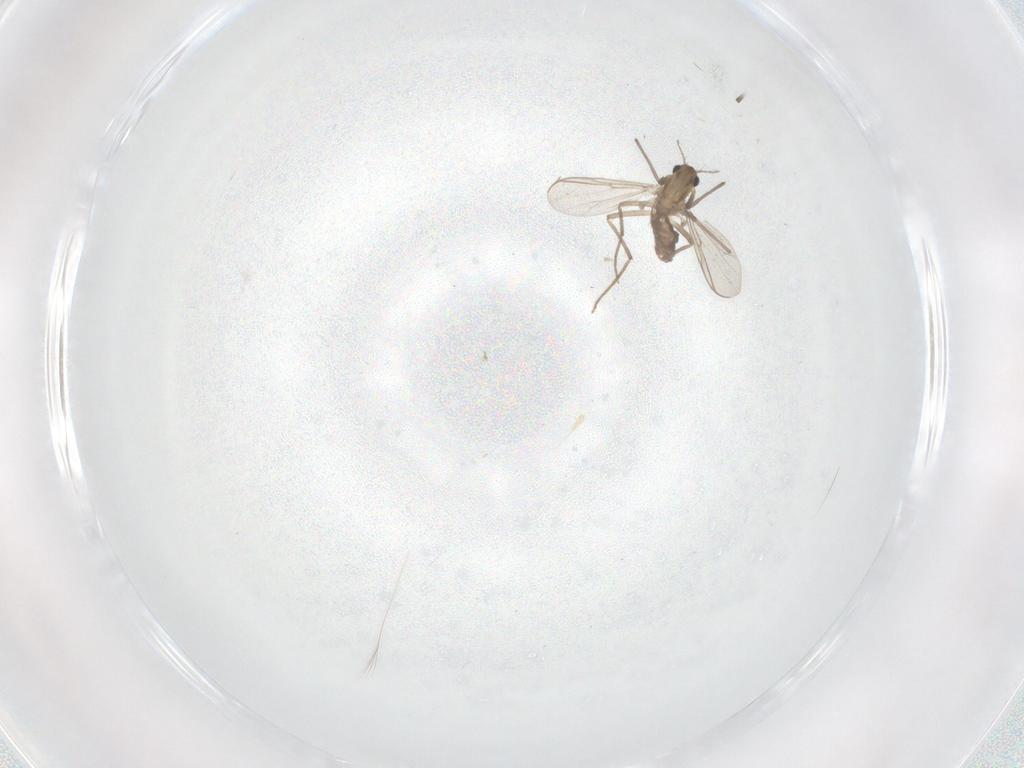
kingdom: Animalia
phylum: Arthropoda
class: Insecta
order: Diptera
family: Chironomidae
